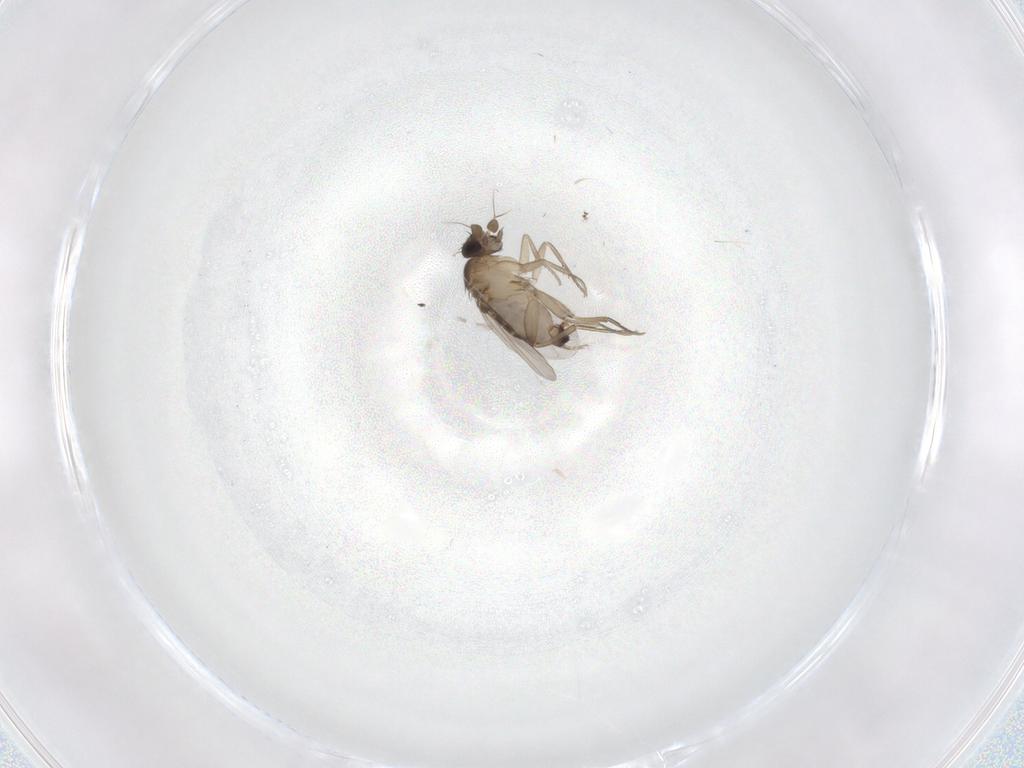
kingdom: Animalia
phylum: Arthropoda
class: Insecta
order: Diptera
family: Phoridae
